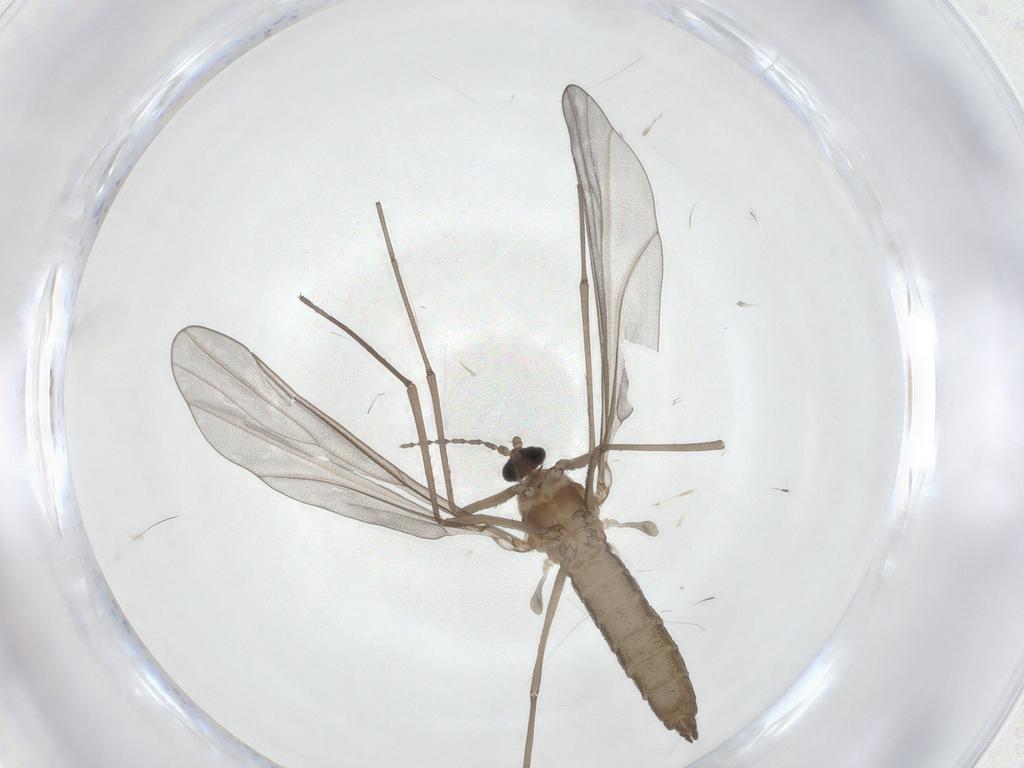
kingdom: Animalia
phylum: Arthropoda
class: Insecta
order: Diptera
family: Cecidomyiidae
